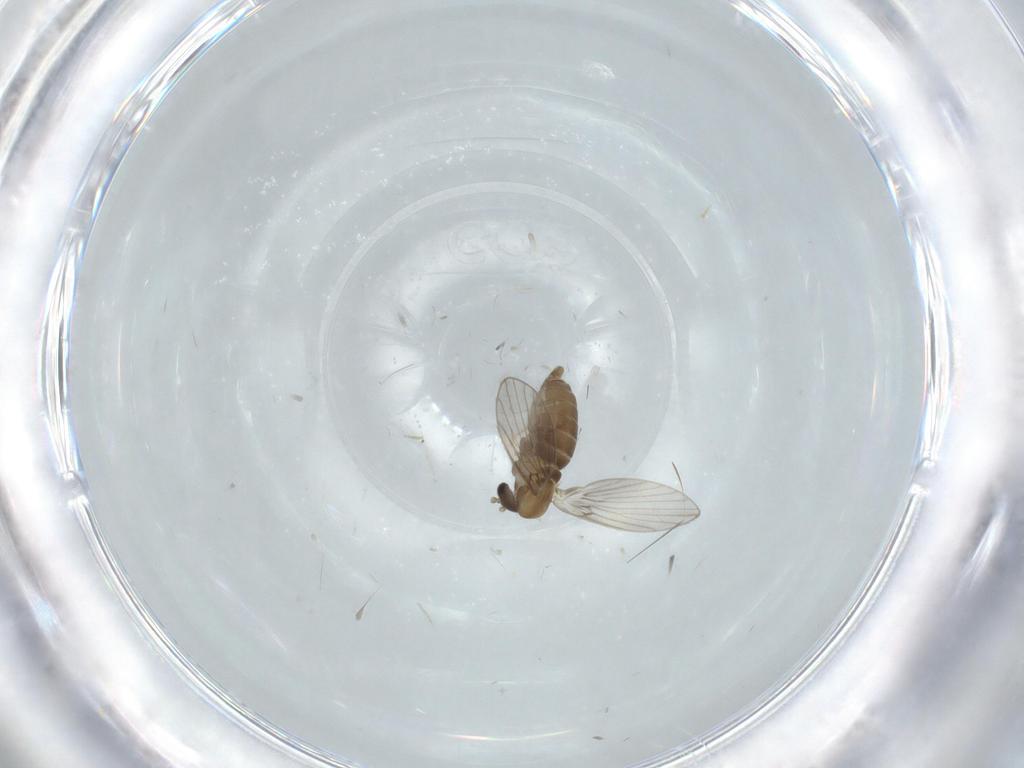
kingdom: Animalia
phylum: Arthropoda
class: Insecta
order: Diptera
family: Psychodidae
